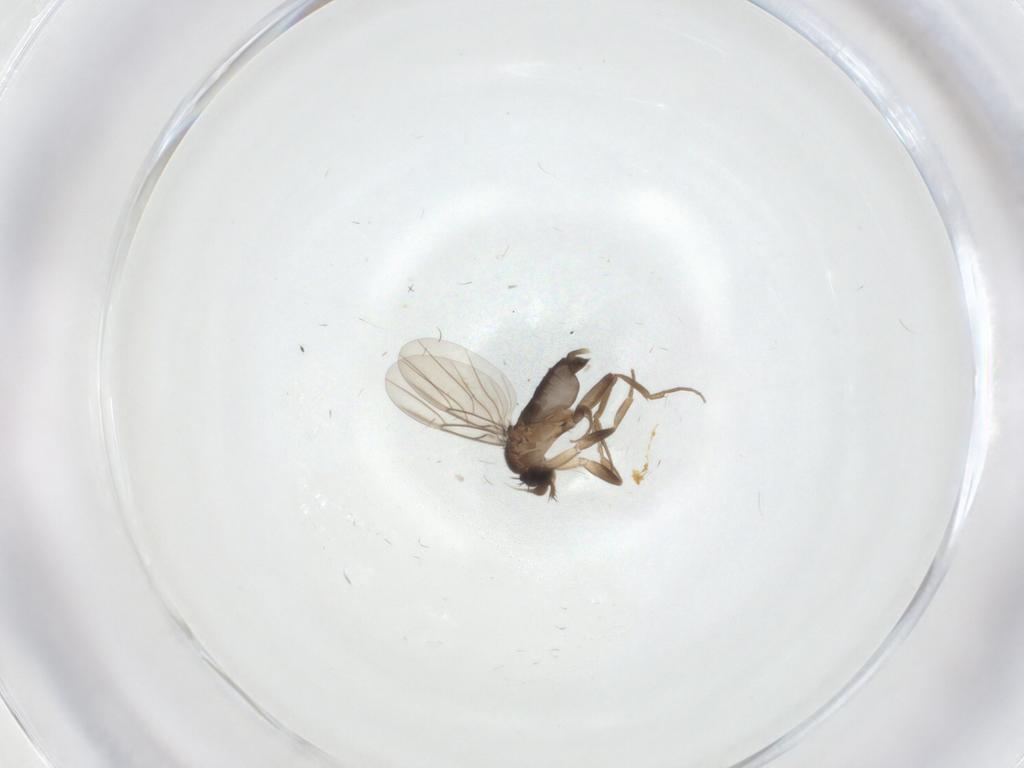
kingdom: Animalia
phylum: Arthropoda
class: Insecta
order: Diptera
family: Phoridae
